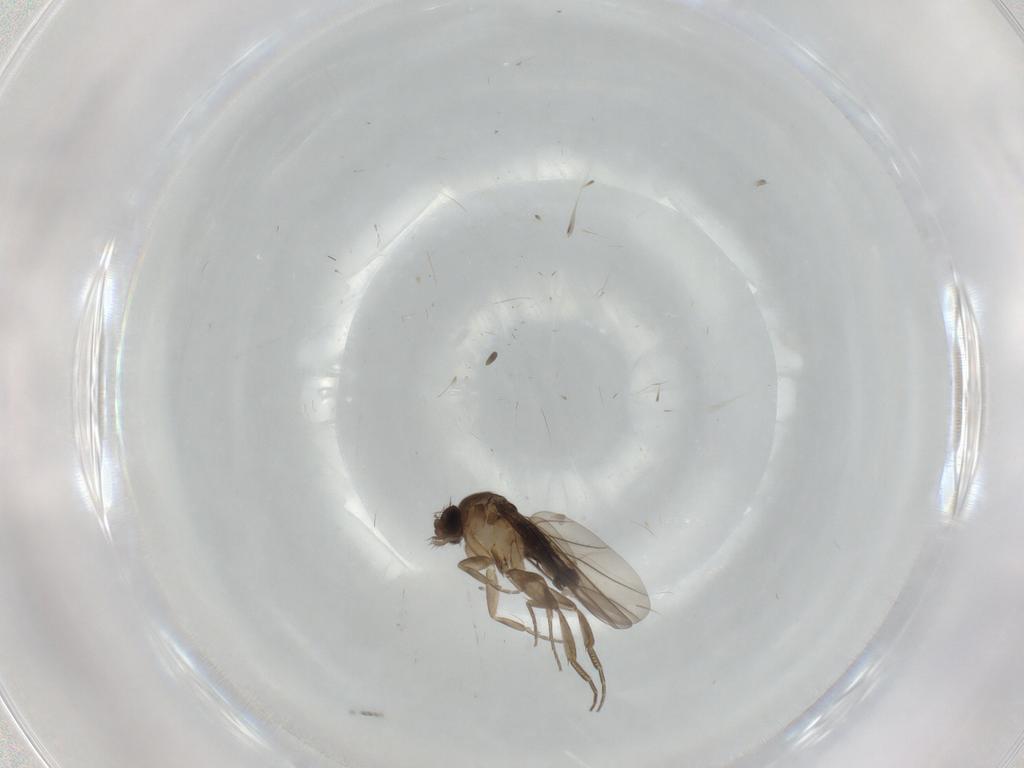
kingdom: Animalia
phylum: Arthropoda
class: Insecta
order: Diptera
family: Phoridae
